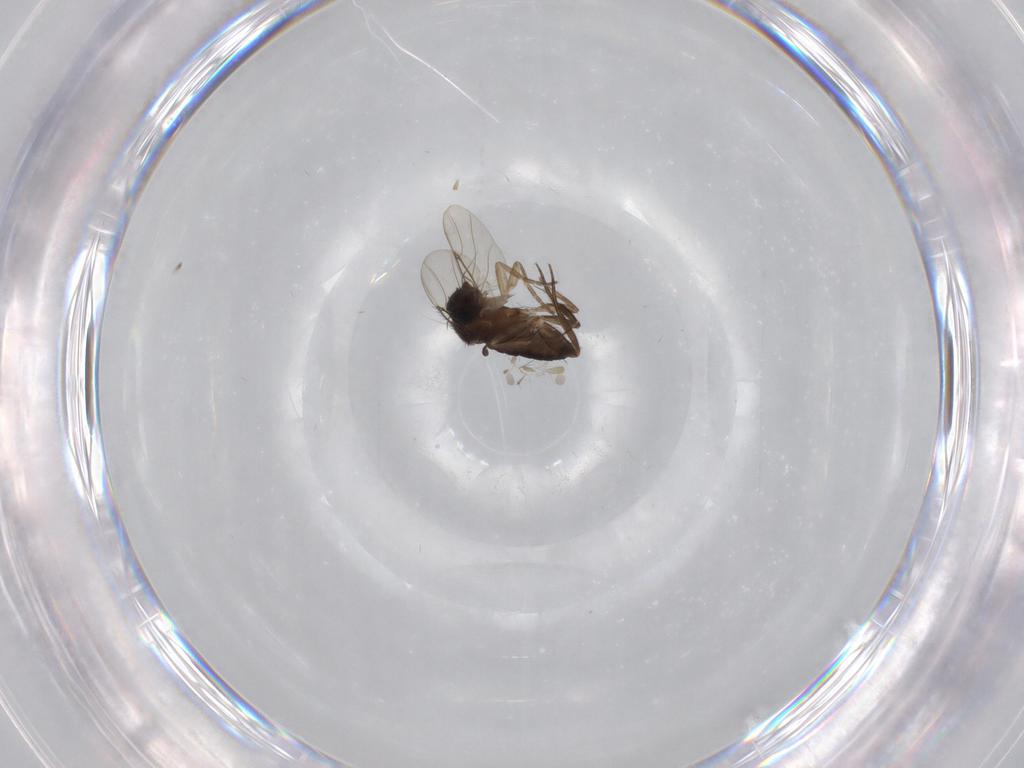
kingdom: Animalia
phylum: Arthropoda
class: Insecta
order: Diptera
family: Phoridae
